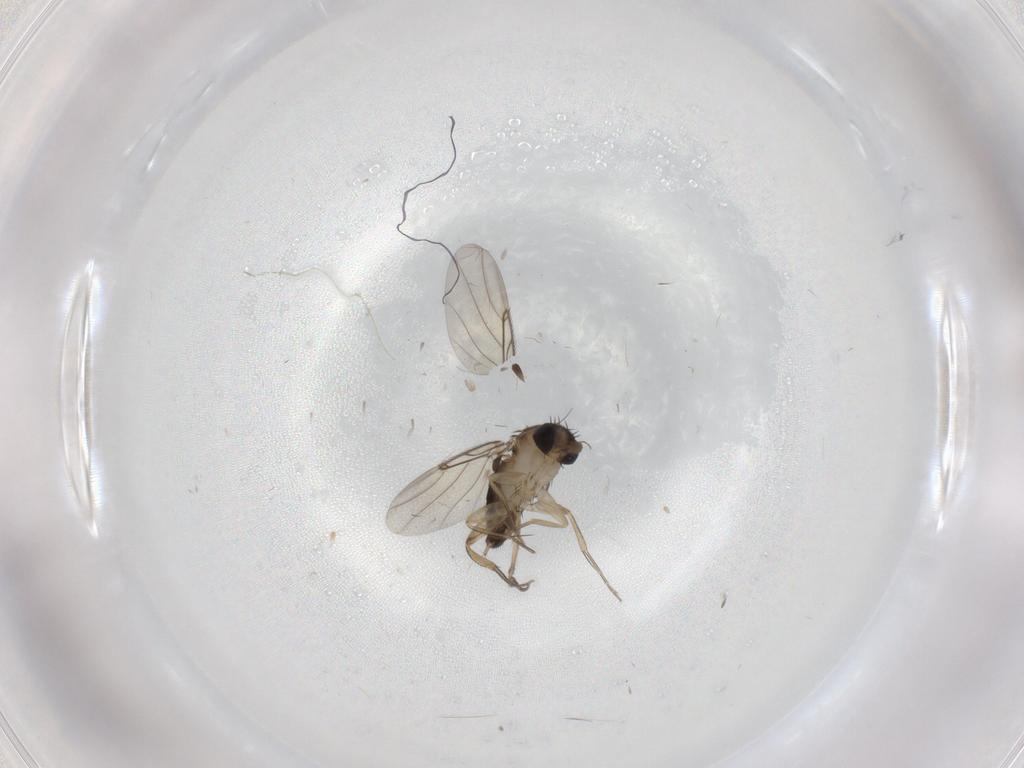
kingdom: Animalia
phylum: Arthropoda
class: Insecta
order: Diptera
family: Phoridae
